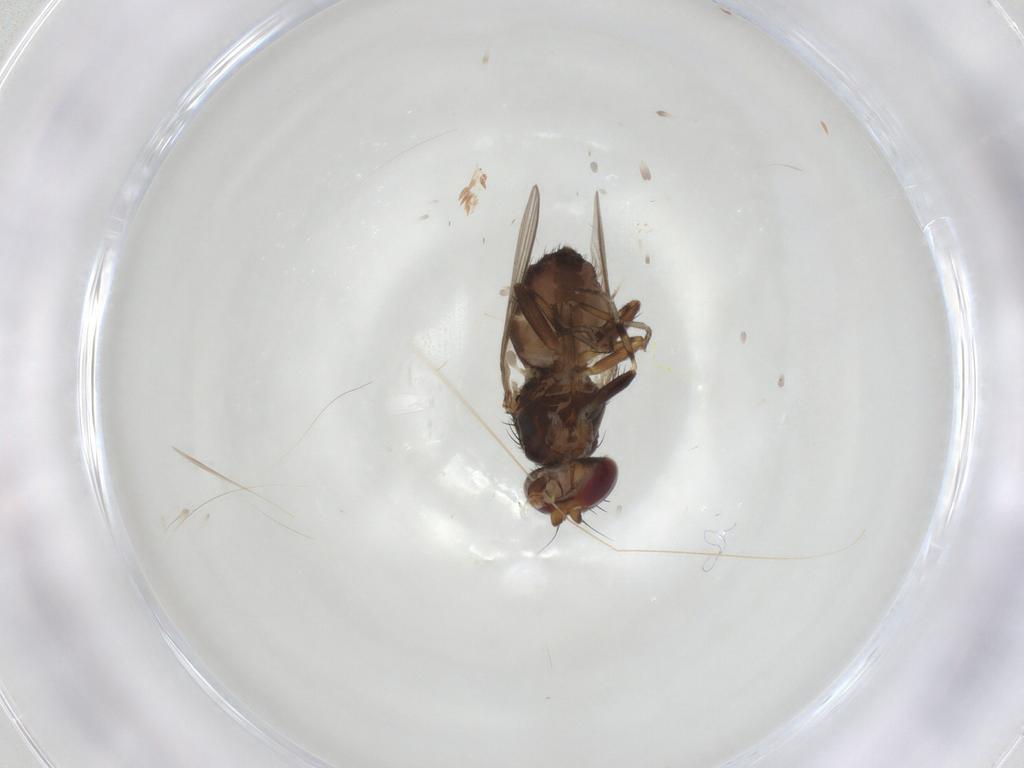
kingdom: Animalia
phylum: Arthropoda
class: Insecta
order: Diptera
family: Heleomyzidae
